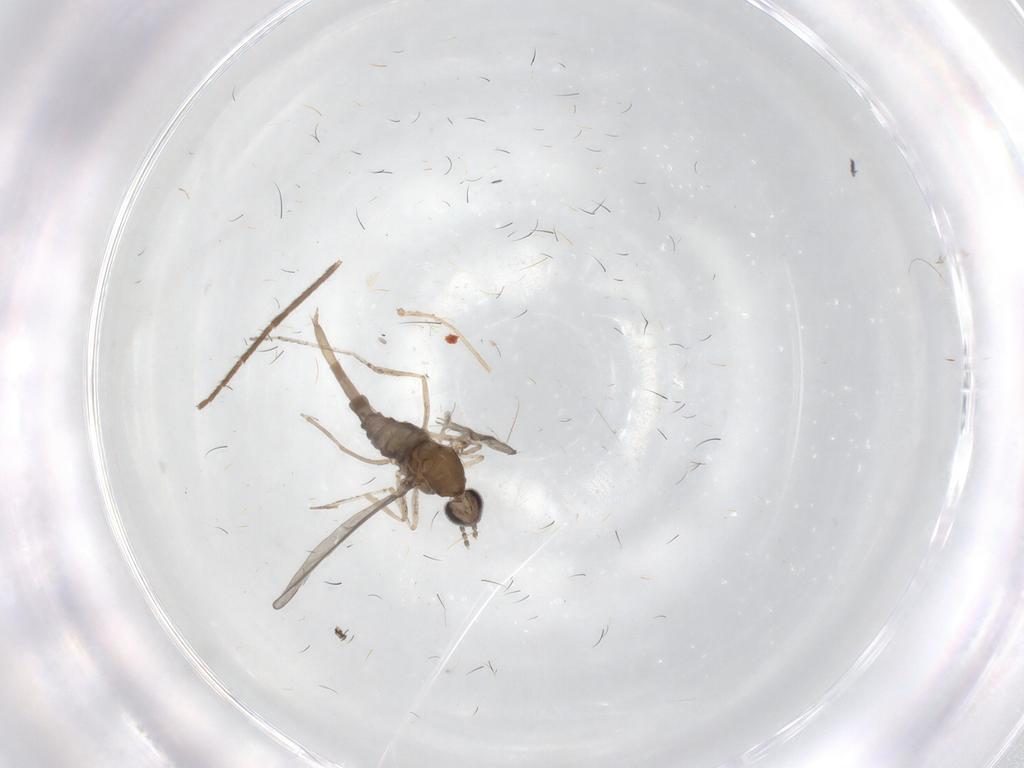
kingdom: Animalia
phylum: Arthropoda
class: Insecta
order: Diptera
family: Cecidomyiidae
